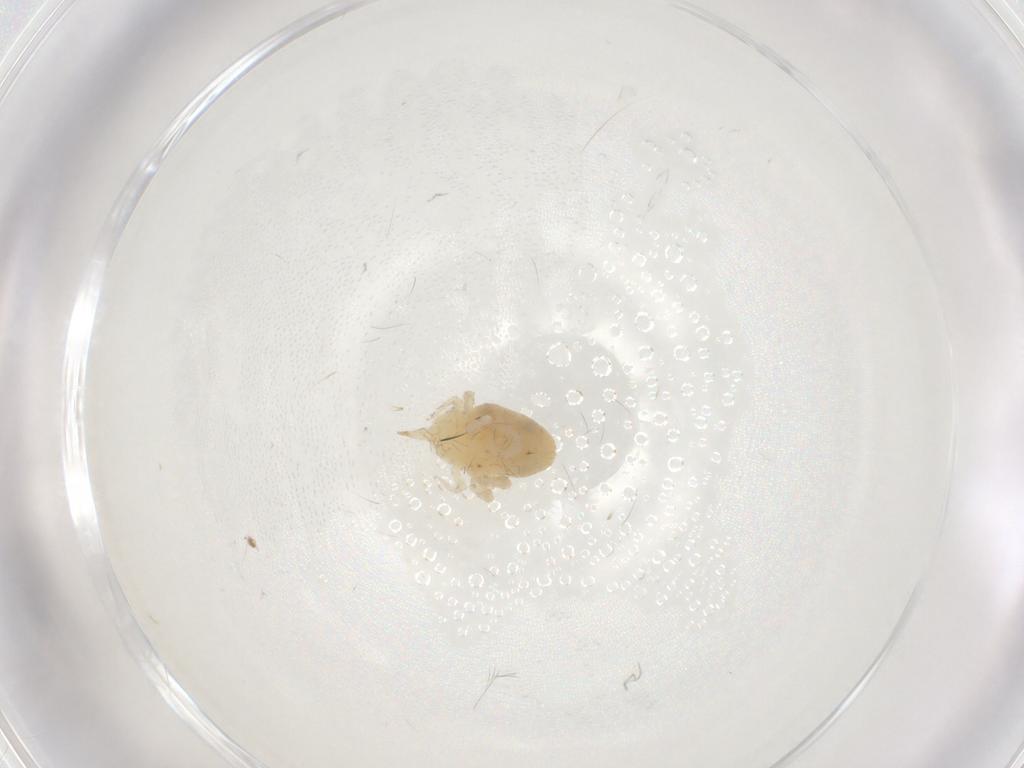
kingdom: Animalia
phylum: Arthropoda
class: Arachnida
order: Trombidiformes
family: Bdellidae
